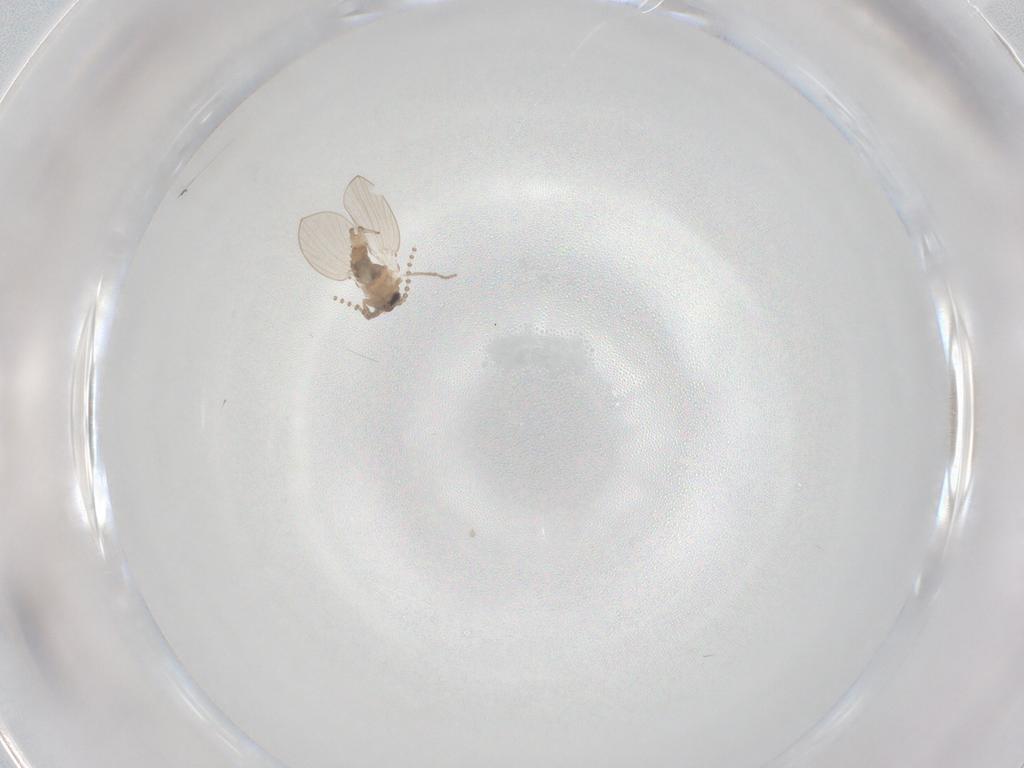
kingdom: Animalia
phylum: Arthropoda
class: Insecta
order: Diptera
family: Psychodidae
